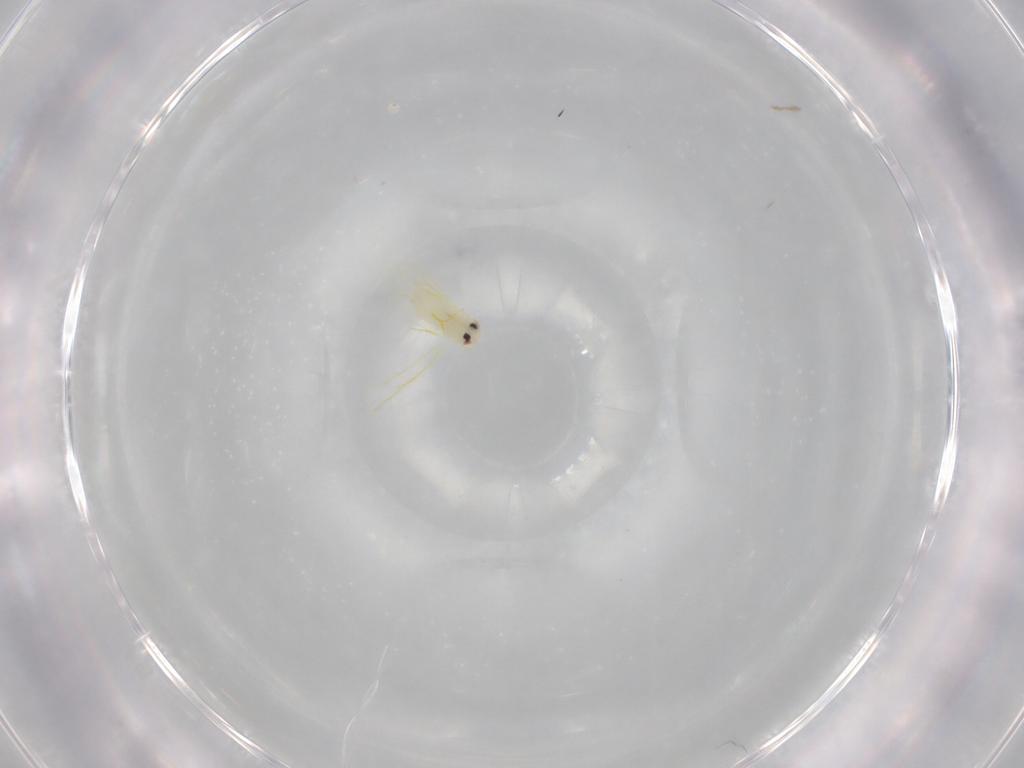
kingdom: Animalia
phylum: Arthropoda
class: Insecta
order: Hemiptera
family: Aleyrodidae
